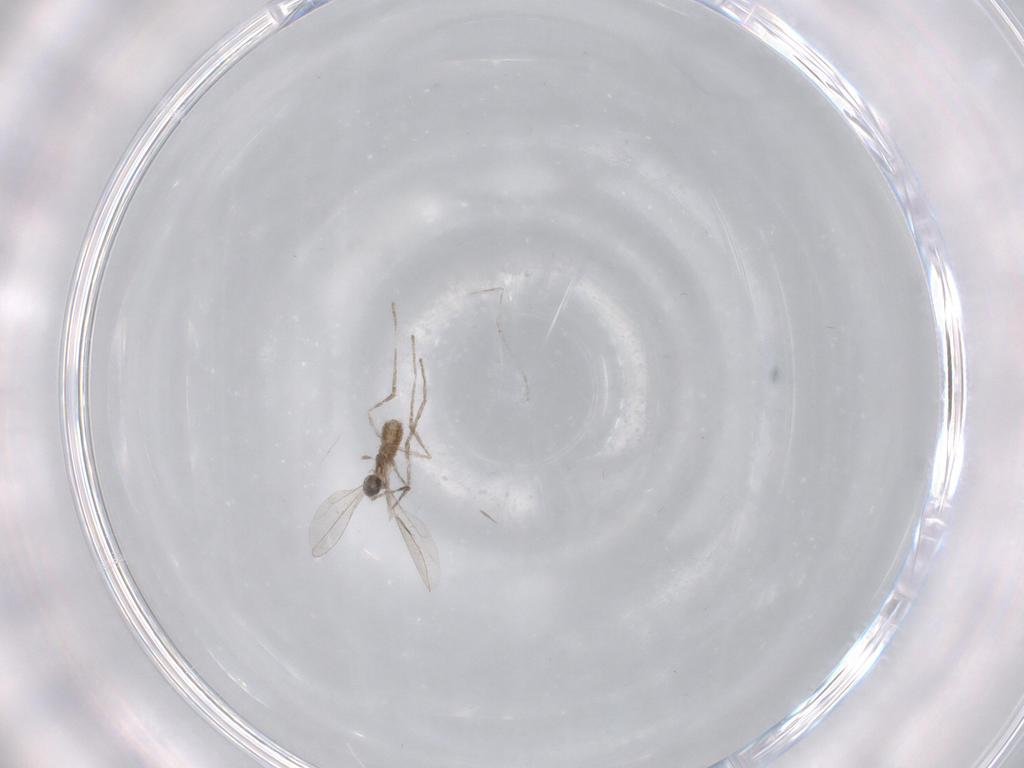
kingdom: Animalia
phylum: Arthropoda
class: Insecta
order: Diptera
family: Cecidomyiidae
